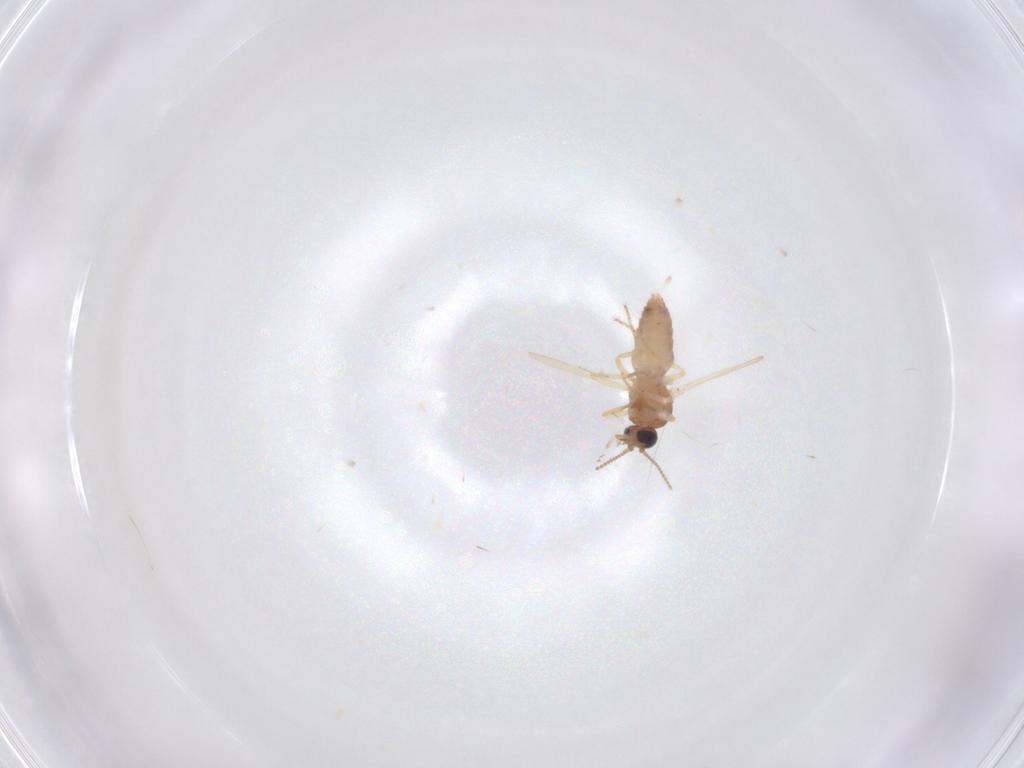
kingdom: Animalia
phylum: Arthropoda
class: Insecta
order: Diptera
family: Ceratopogonidae
